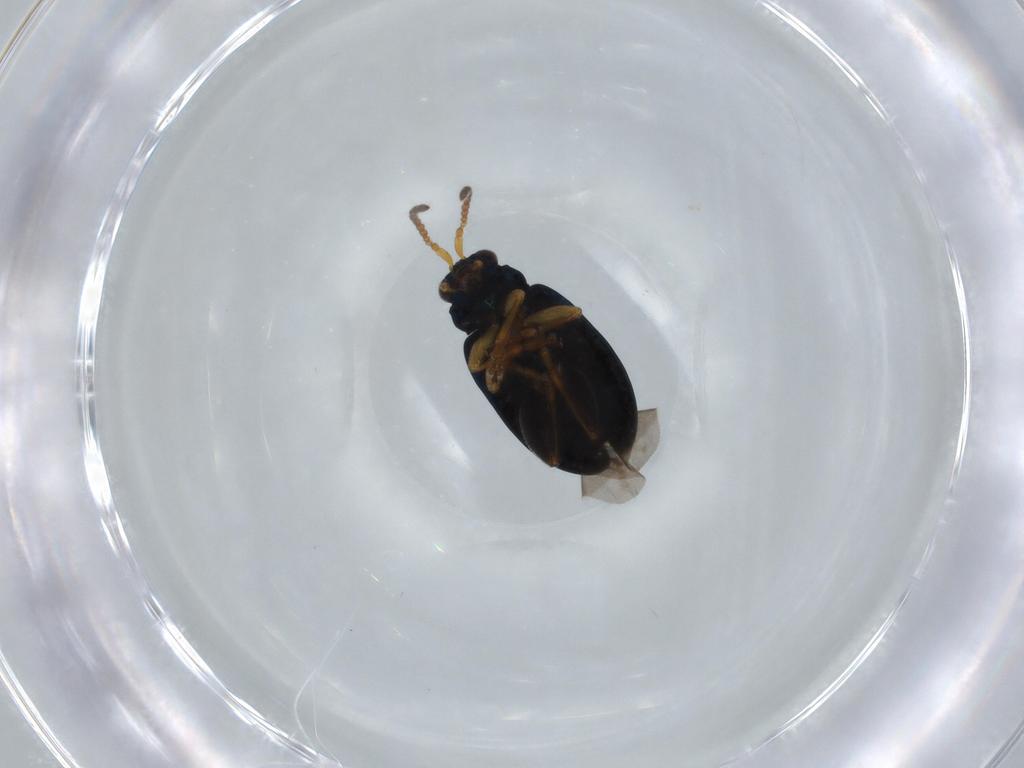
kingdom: Animalia
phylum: Arthropoda
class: Insecta
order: Coleoptera
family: Chrysomelidae
